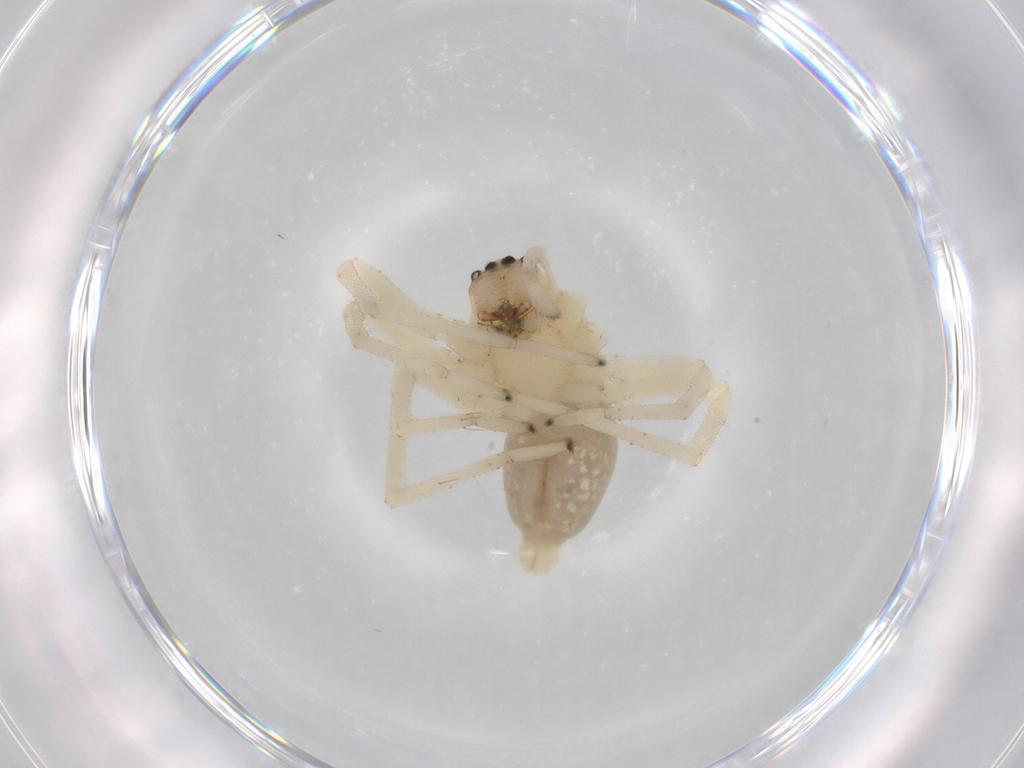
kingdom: Animalia
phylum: Arthropoda
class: Arachnida
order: Araneae
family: Cheiracanthiidae
